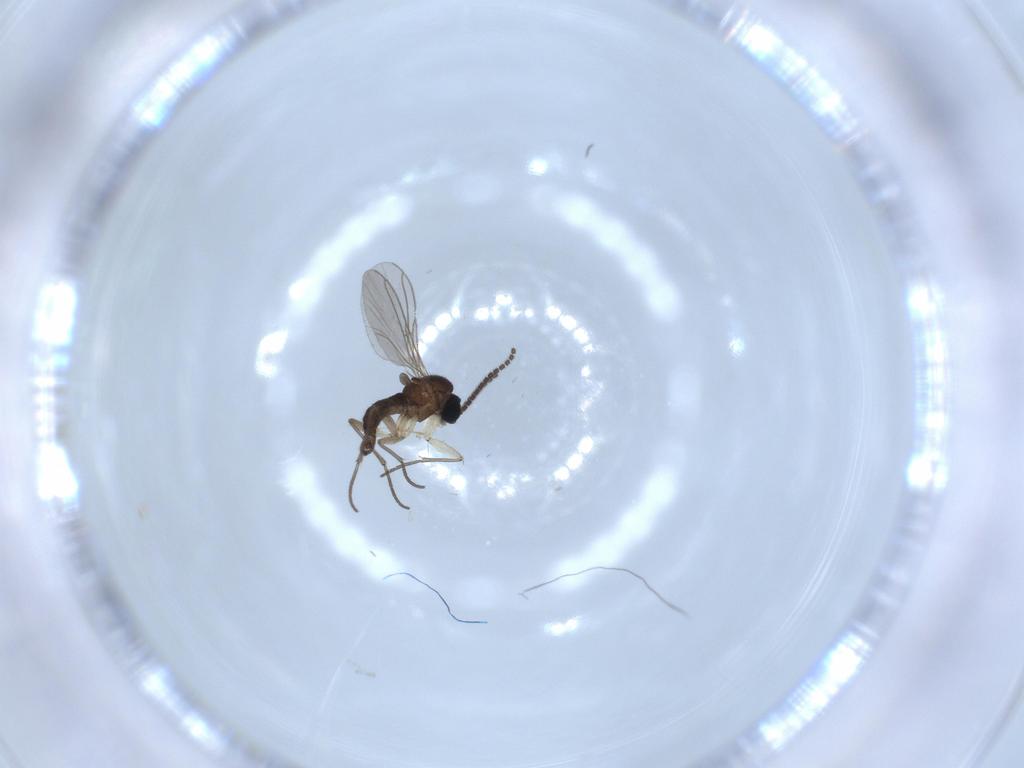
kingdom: Animalia
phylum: Arthropoda
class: Insecta
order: Diptera
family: Sciaridae
